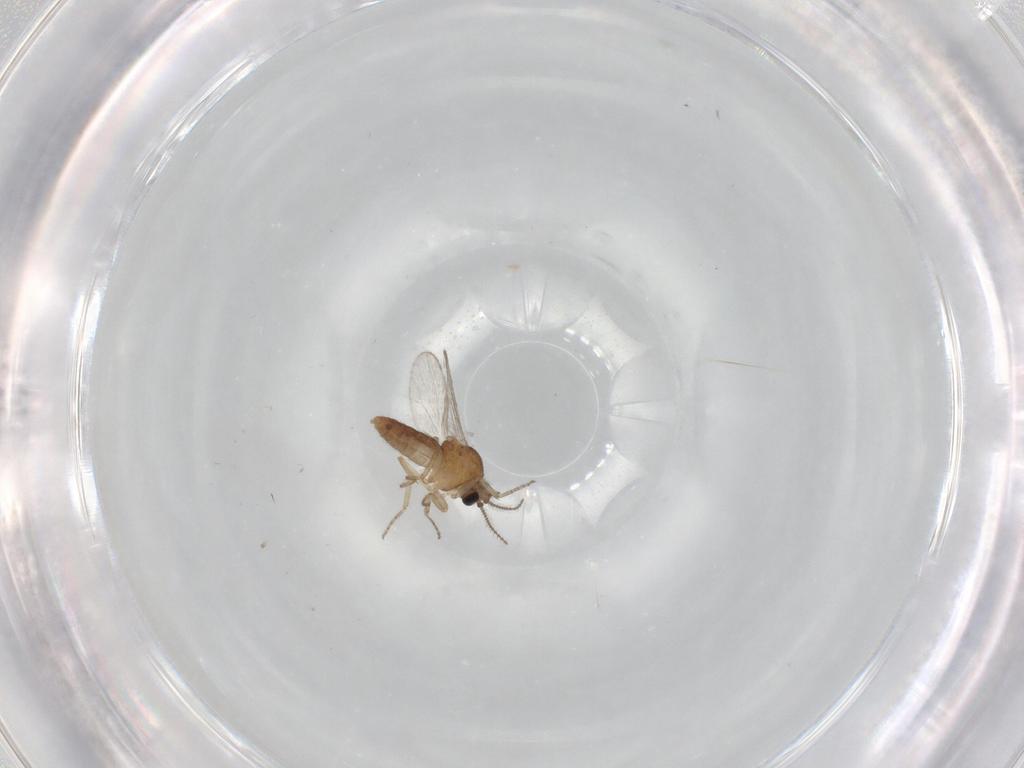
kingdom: Animalia
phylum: Arthropoda
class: Insecta
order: Diptera
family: Ceratopogonidae
